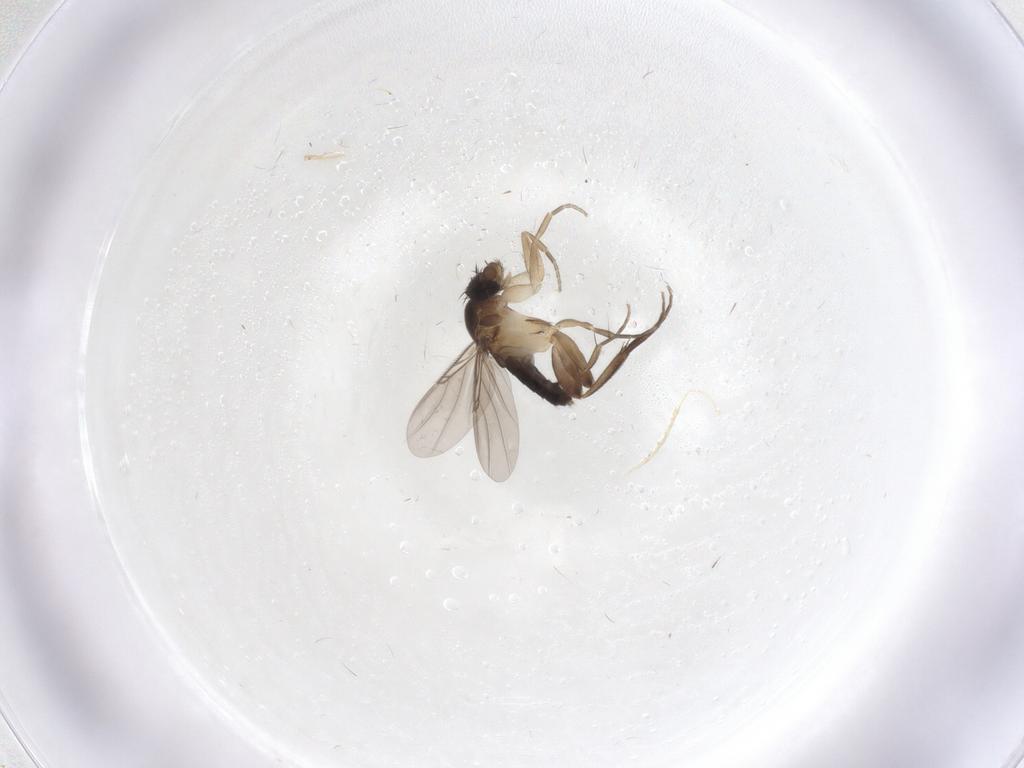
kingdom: Animalia
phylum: Arthropoda
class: Insecta
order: Diptera
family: Phoridae
